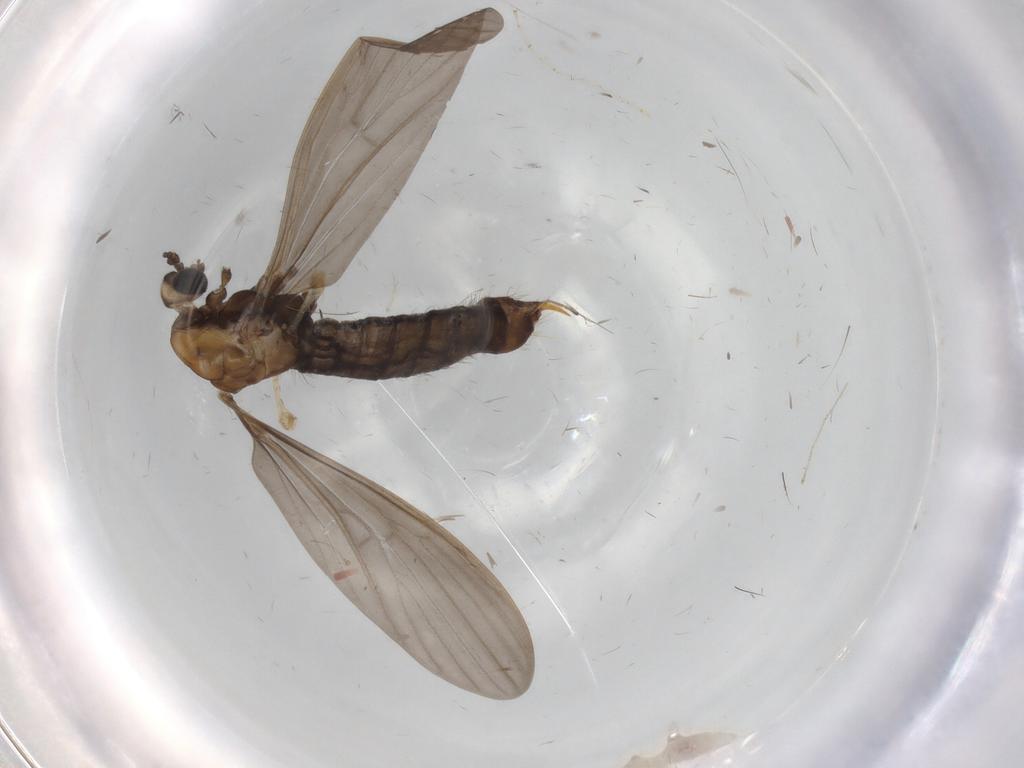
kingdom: Animalia
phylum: Arthropoda
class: Insecta
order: Diptera
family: Limoniidae
